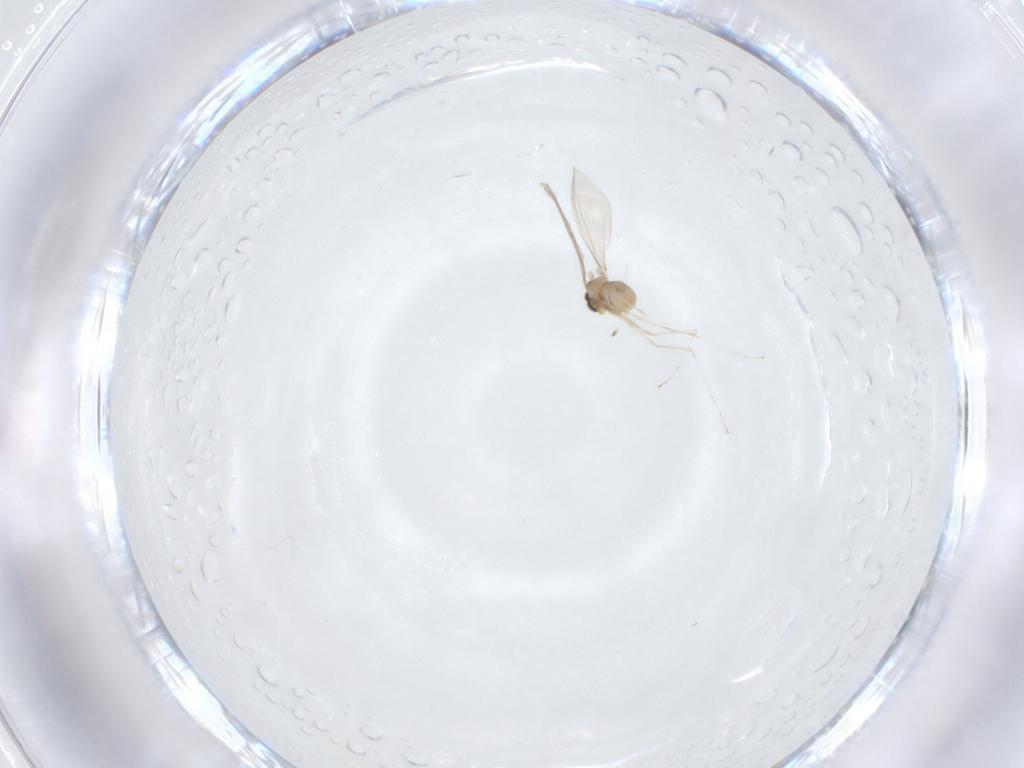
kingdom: Animalia
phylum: Arthropoda
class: Insecta
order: Diptera
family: Cecidomyiidae
